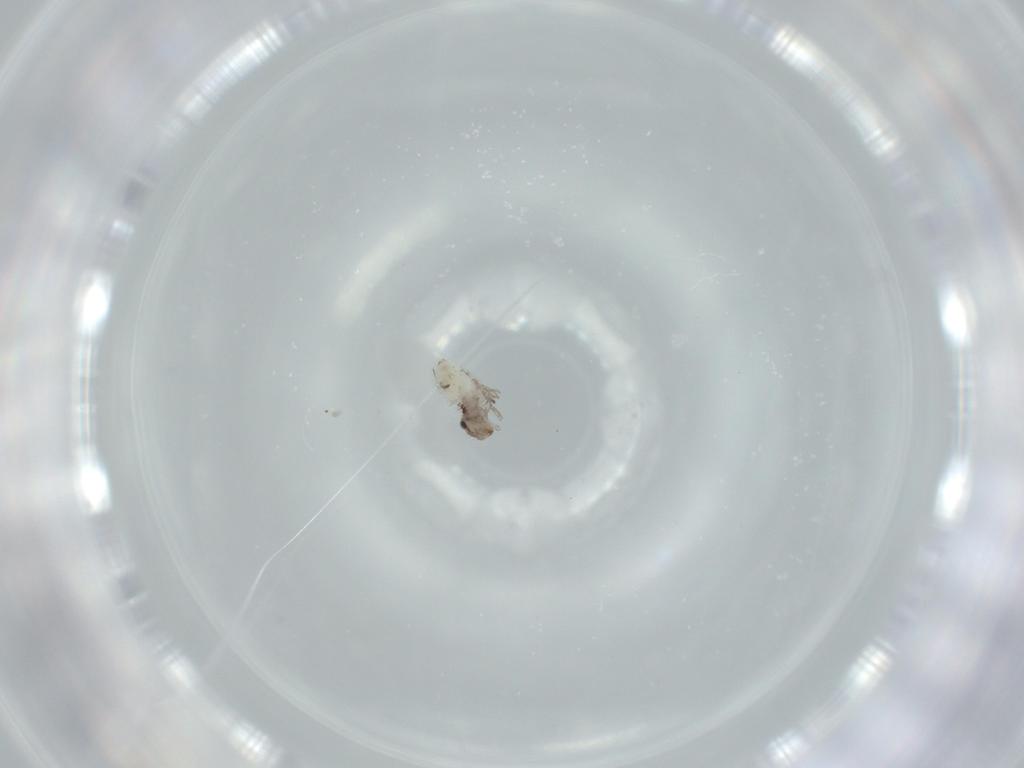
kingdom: Animalia
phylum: Arthropoda
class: Insecta
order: Psocodea
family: Lepidopsocidae
